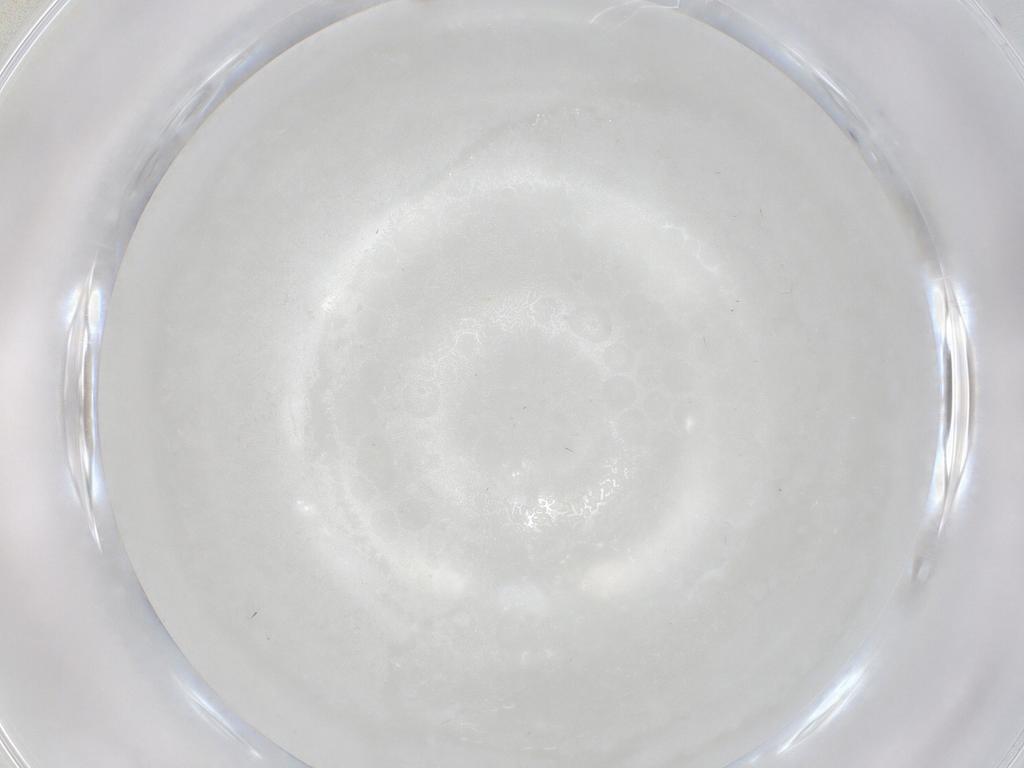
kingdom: Animalia
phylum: Arthropoda
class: Insecta
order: Diptera
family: Cecidomyiidae
